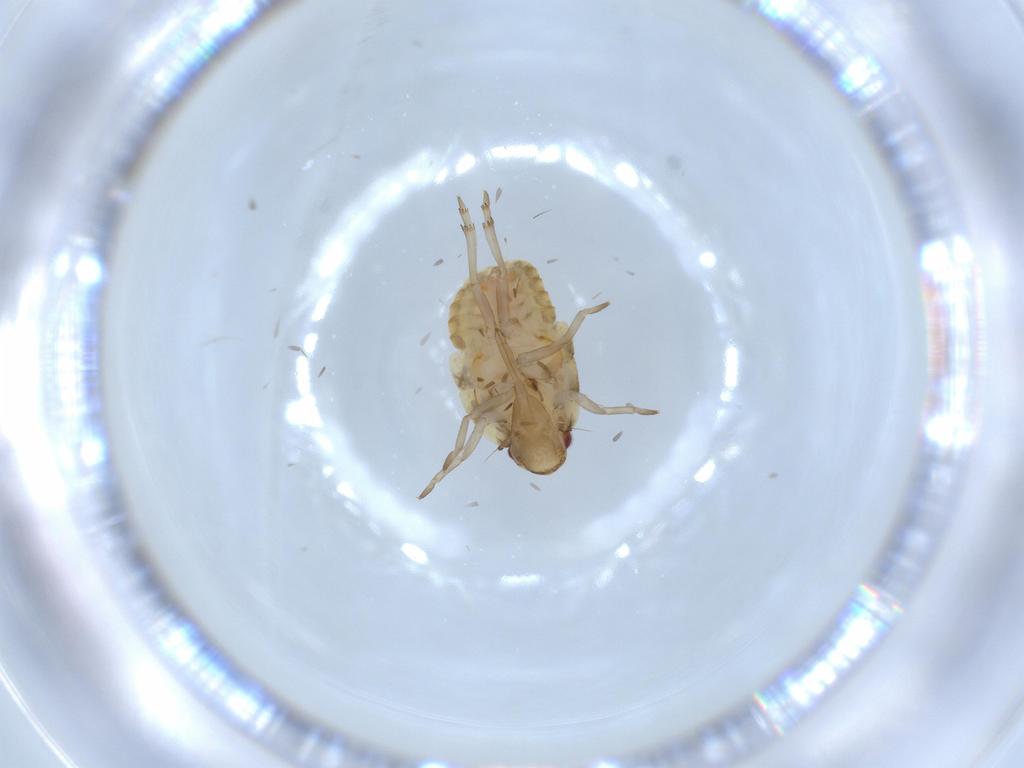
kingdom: Animalia
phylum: Arthropoda
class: Insecta
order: Hemiptera
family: Flatidae
